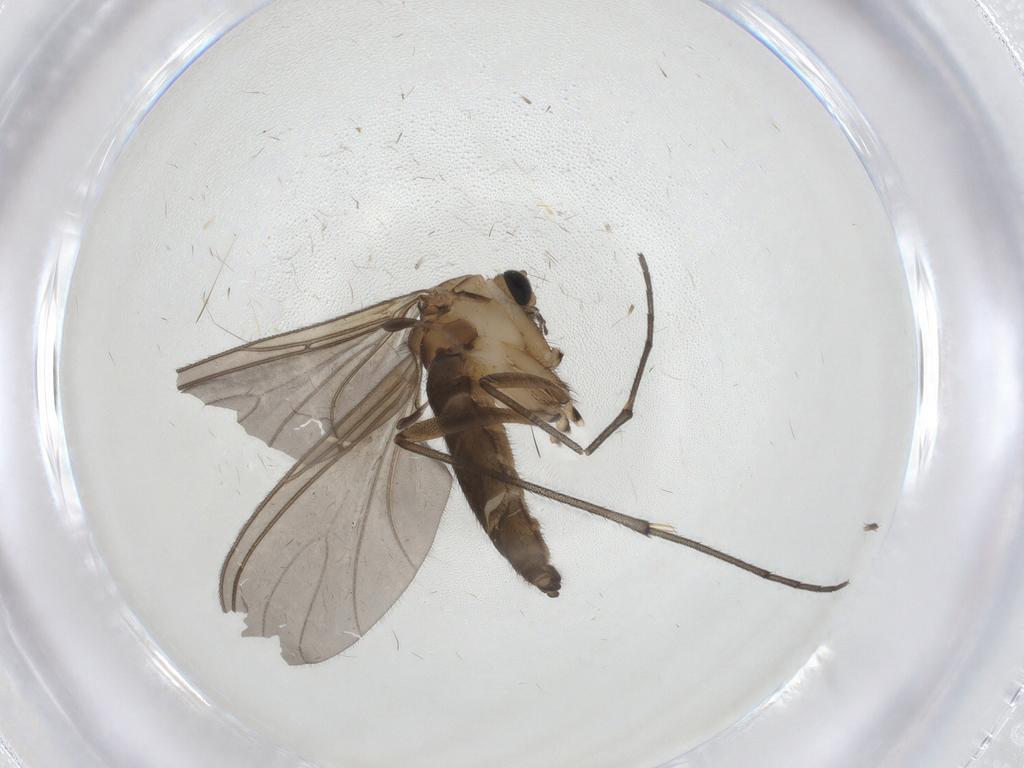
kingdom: Animalia
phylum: Arthropoda
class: Insecta
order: Diptera
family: Sciaridae
